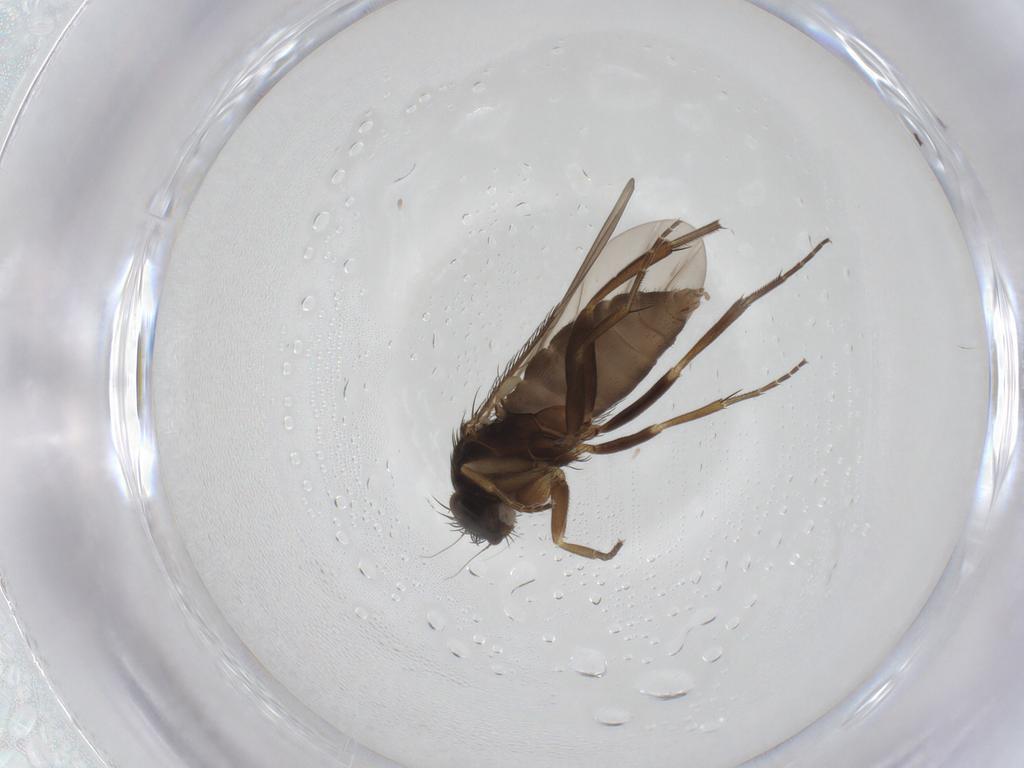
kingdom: Animalia
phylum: Arthropoda
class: Insecta
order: Diptera
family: Phoridae
